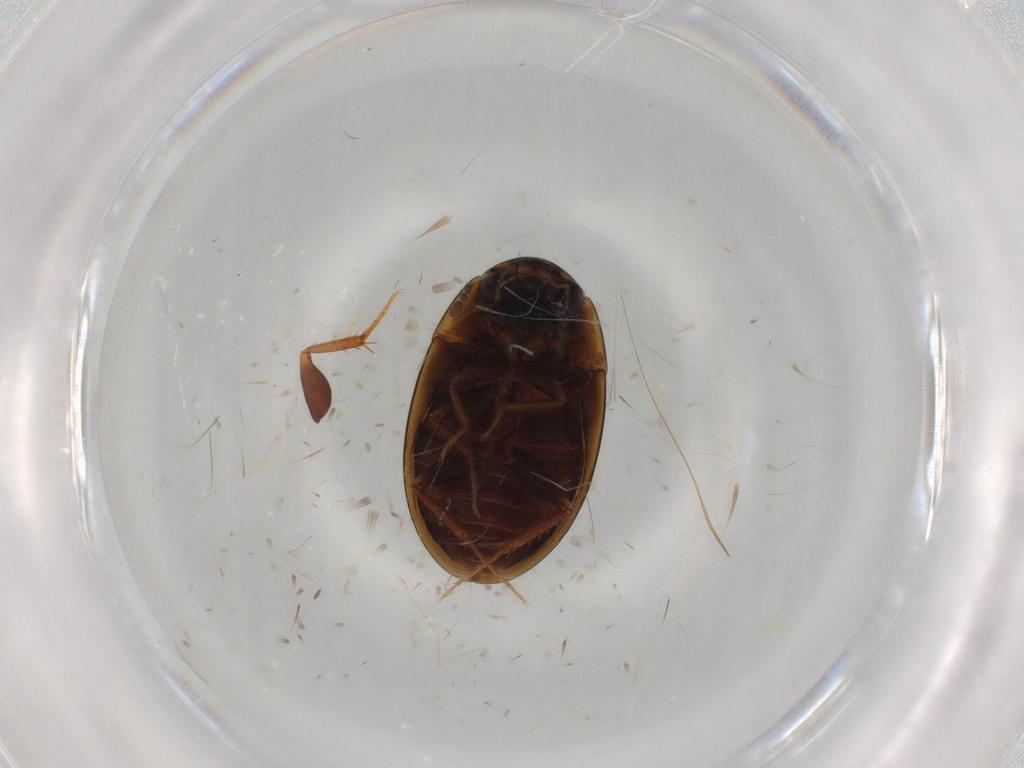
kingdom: Animalia
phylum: Arthropoda
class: Insecta
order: Coleoptera
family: Hydrophilidae
